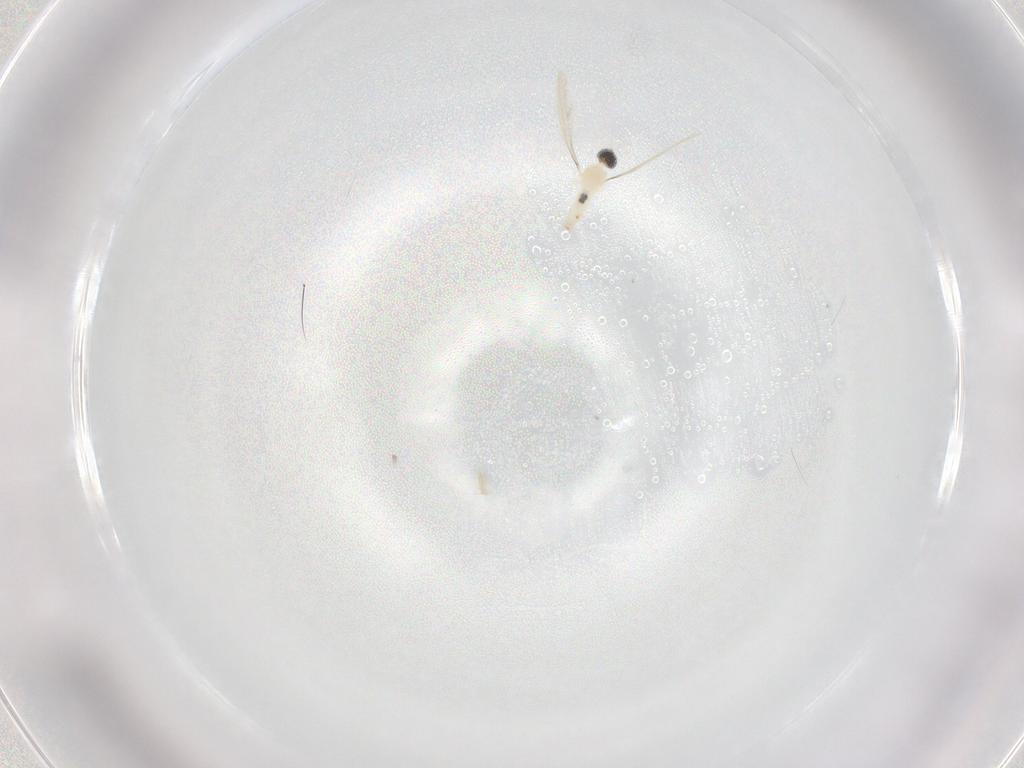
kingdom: Animalia
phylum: Arthropoda
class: Insecta
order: Diptera
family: Cecidomyiidae
